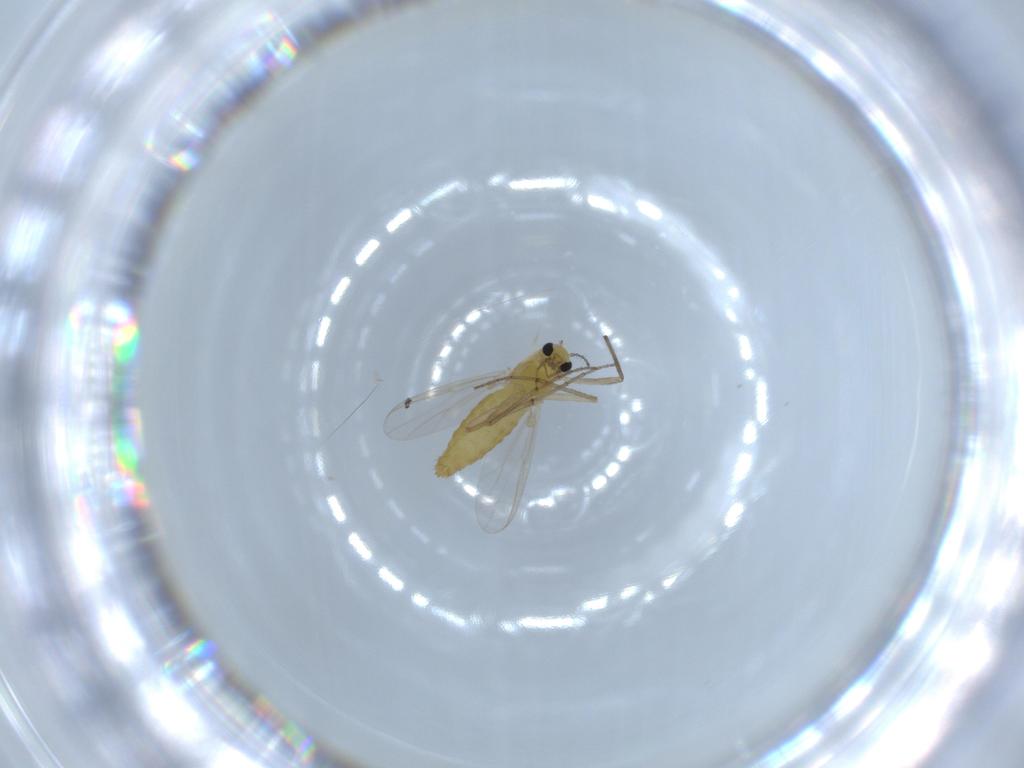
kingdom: Animalia
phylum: Arthropoda
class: Insecta
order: Diptera
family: Chironomidae
